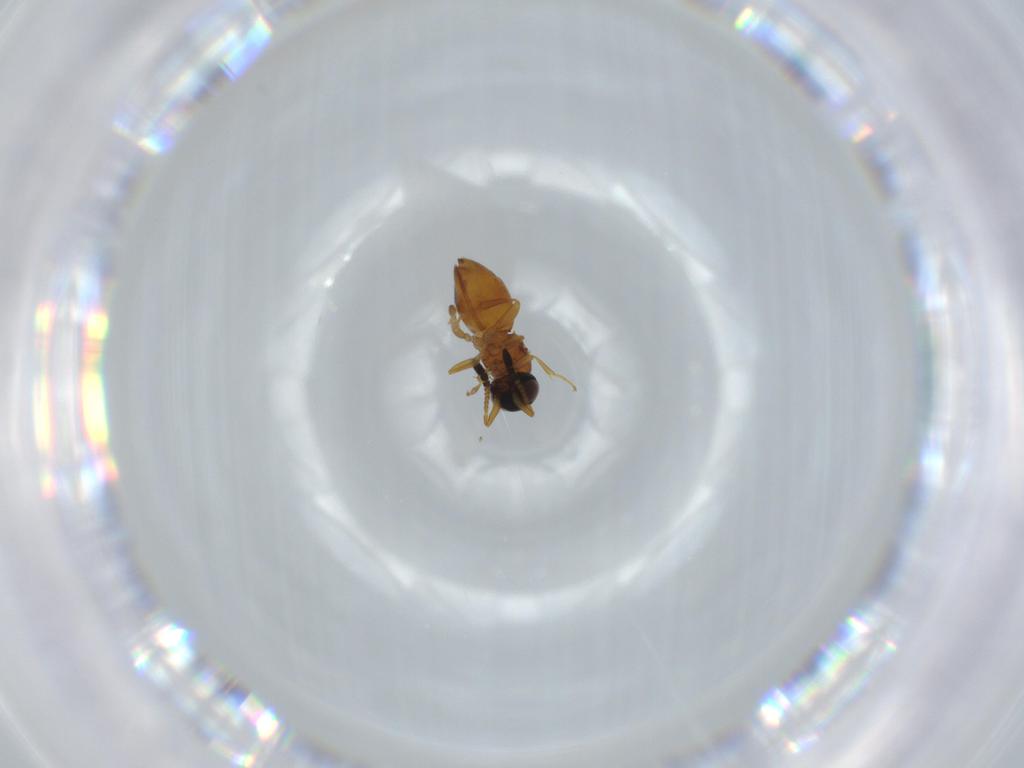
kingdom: Animalia
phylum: Arthropoda
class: Insecta
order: Hymenoptera
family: Ceraphronidae
